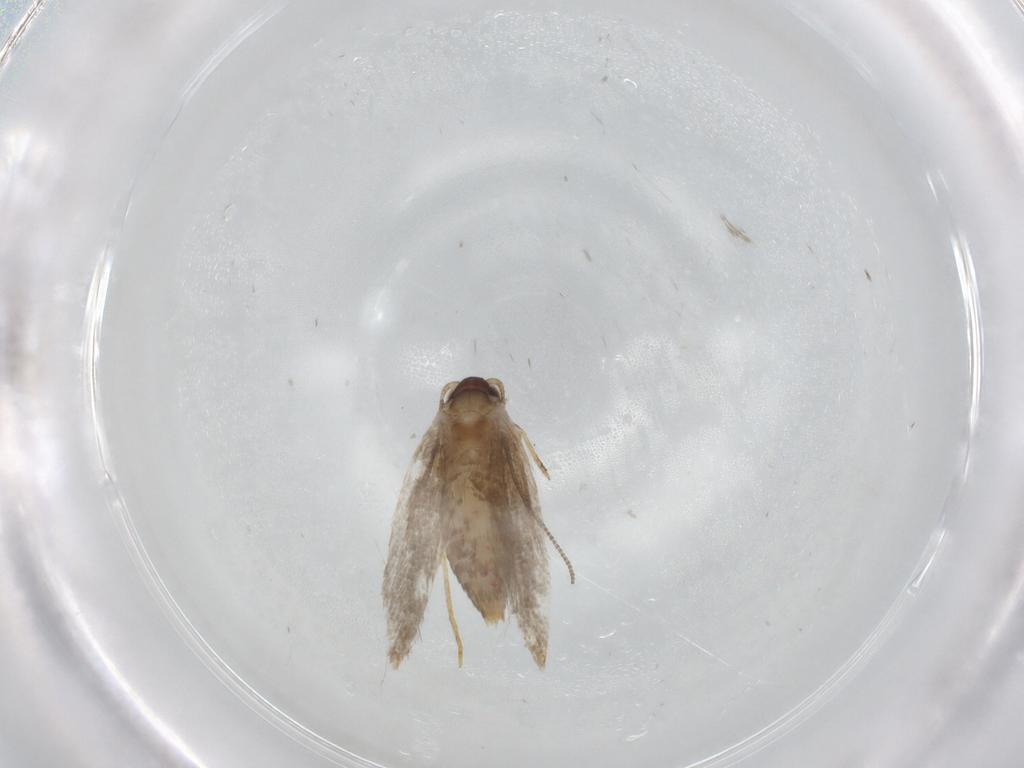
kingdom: Animalia
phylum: Arthropoda
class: Insecta
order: Lepidoptera
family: Tineidae
